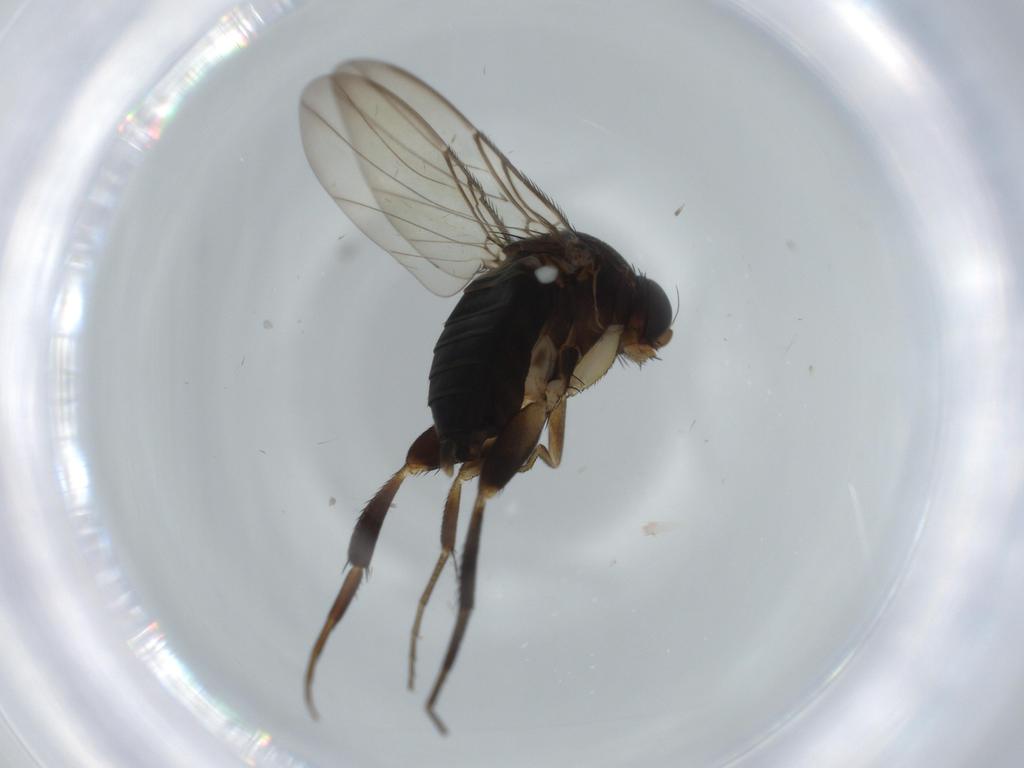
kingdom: Animalia
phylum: Arthropoda
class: Insecta
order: Diptera
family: Phoridae
